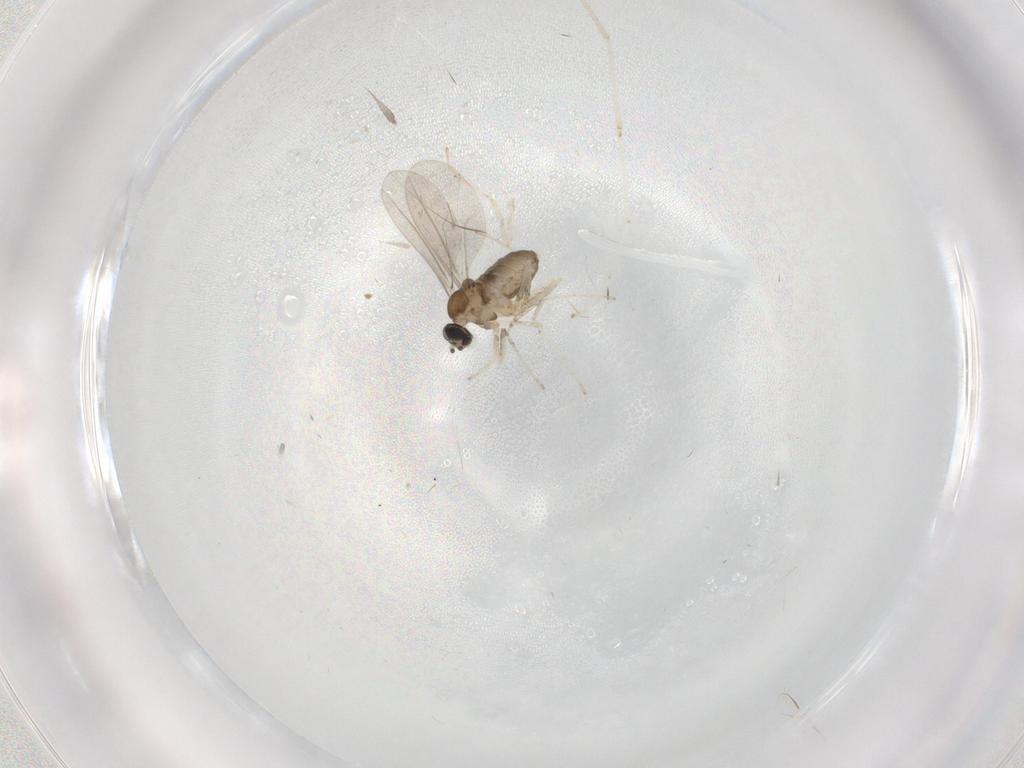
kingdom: Animalia
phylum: Arthropoda
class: Insecta
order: Diptera
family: Cecidomyiidae
